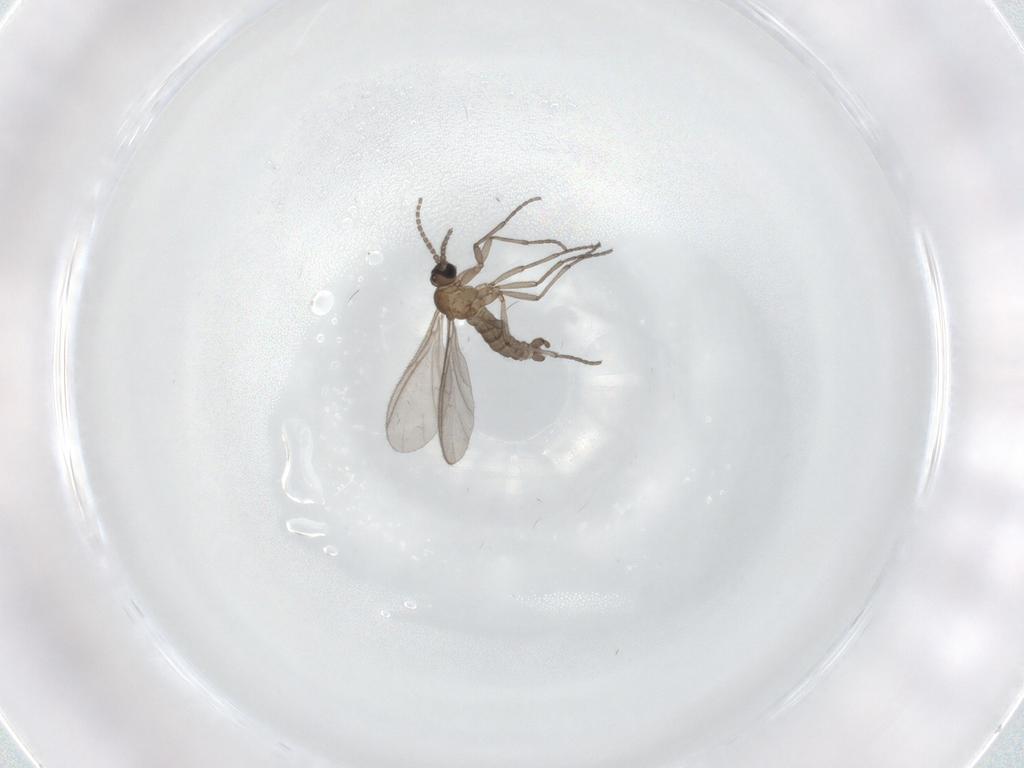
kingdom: Animalia
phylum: Arthropoda
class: Insecta
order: Diptera
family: Sciaridae
